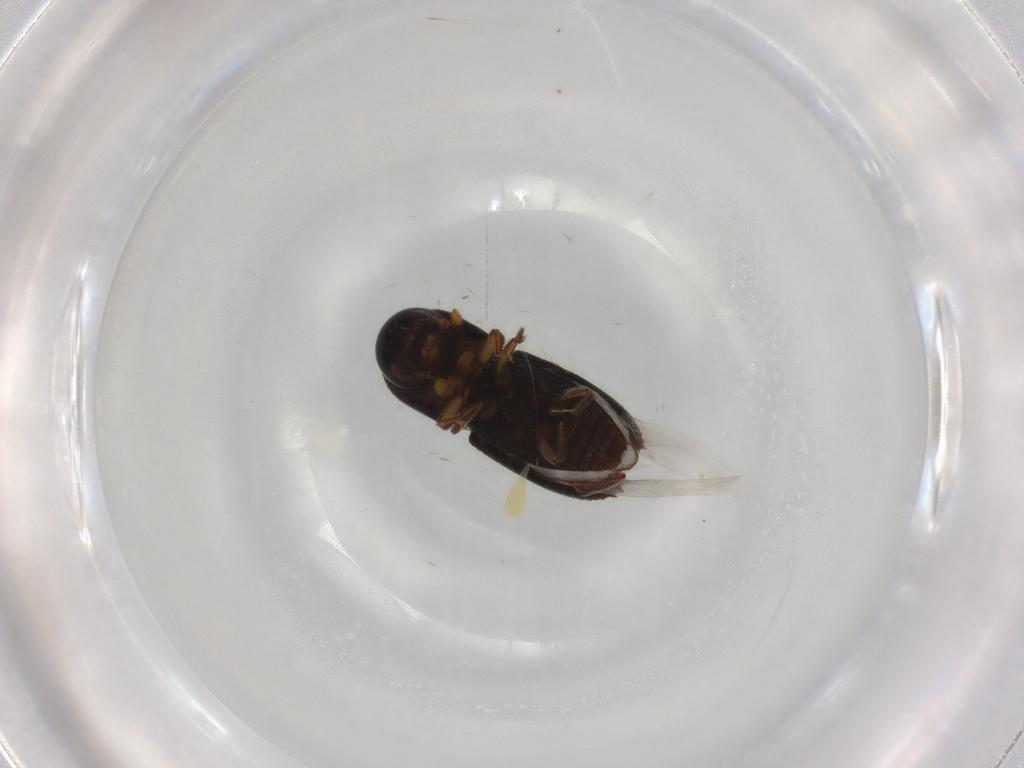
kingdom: Animalia
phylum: Arthropoda
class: Insecta
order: Coleoptera
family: Curculionidae
